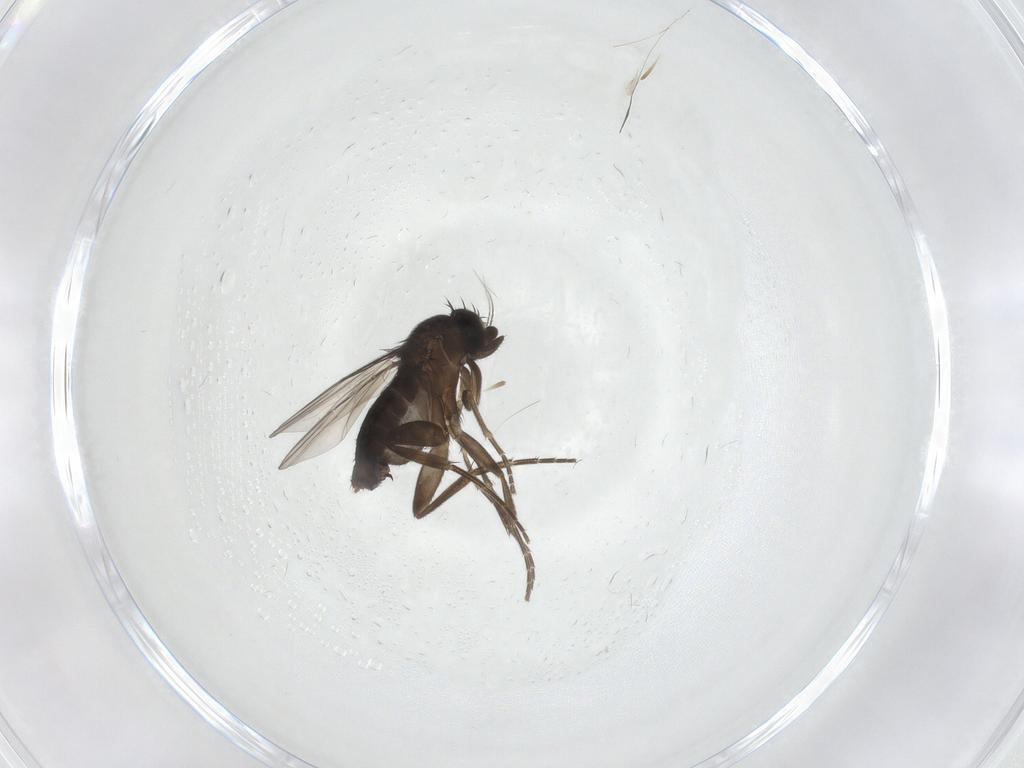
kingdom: Animalia
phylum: Arthropoda
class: Insecta
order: Diptera
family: Phoridae
